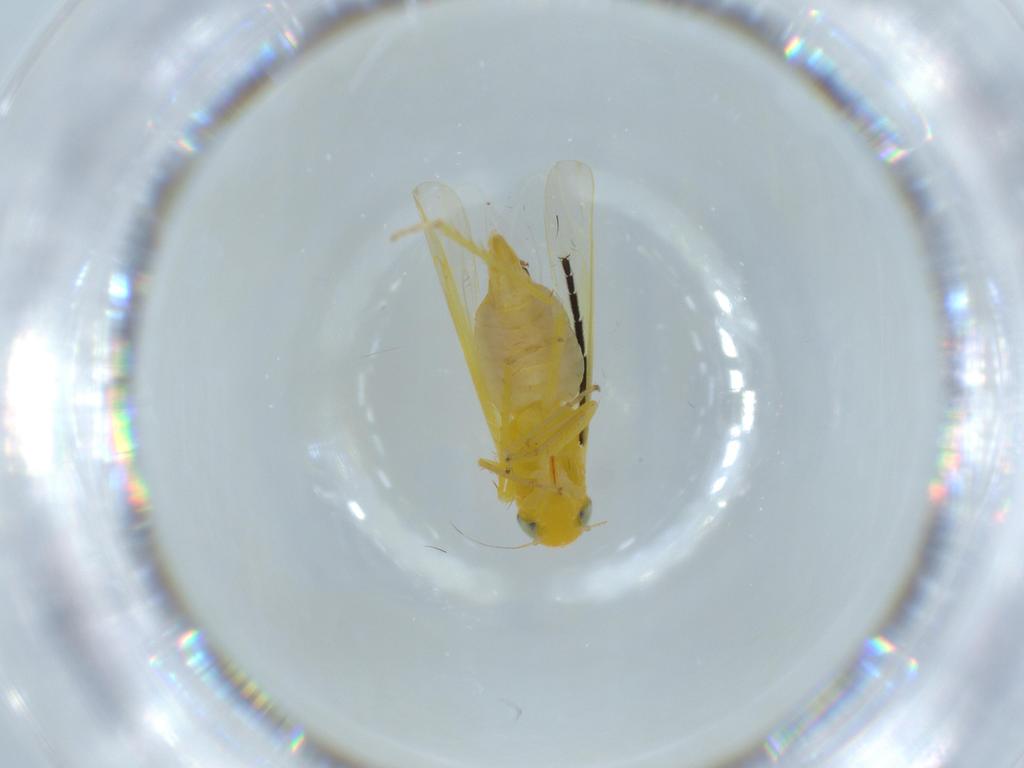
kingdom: Animalia
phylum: Arthropoda
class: Insecta
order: Hemiptera
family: Cicadellidae
